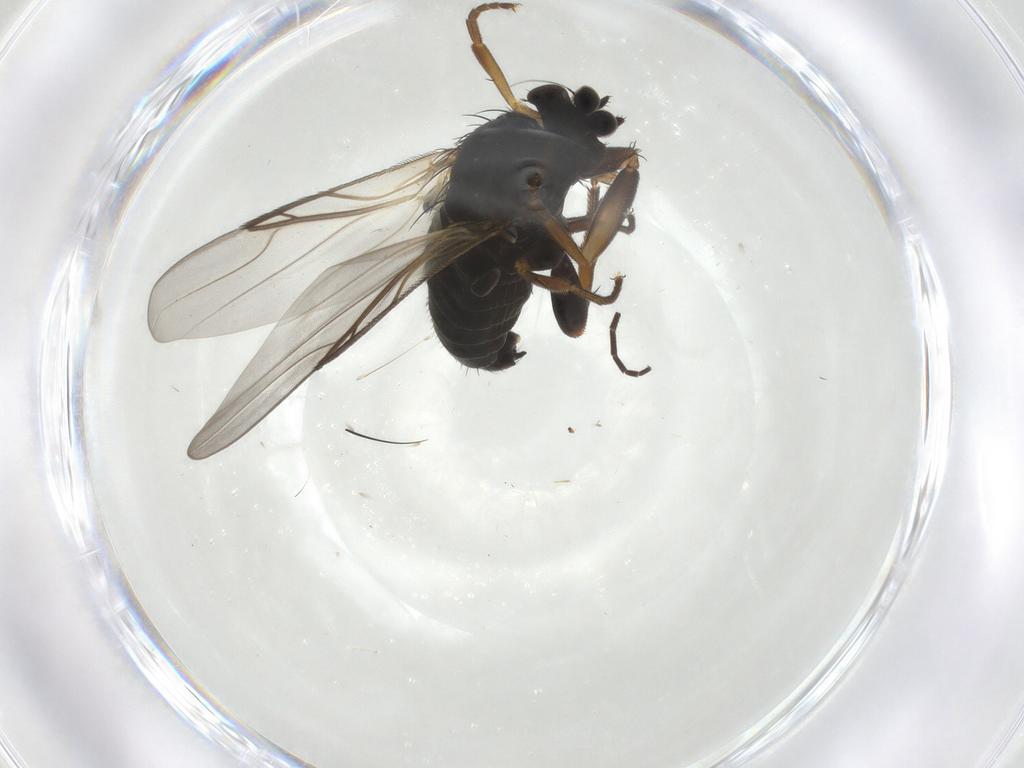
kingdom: Animalia
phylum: Arthropoda
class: Insecta
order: Diptera
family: Phoridae
